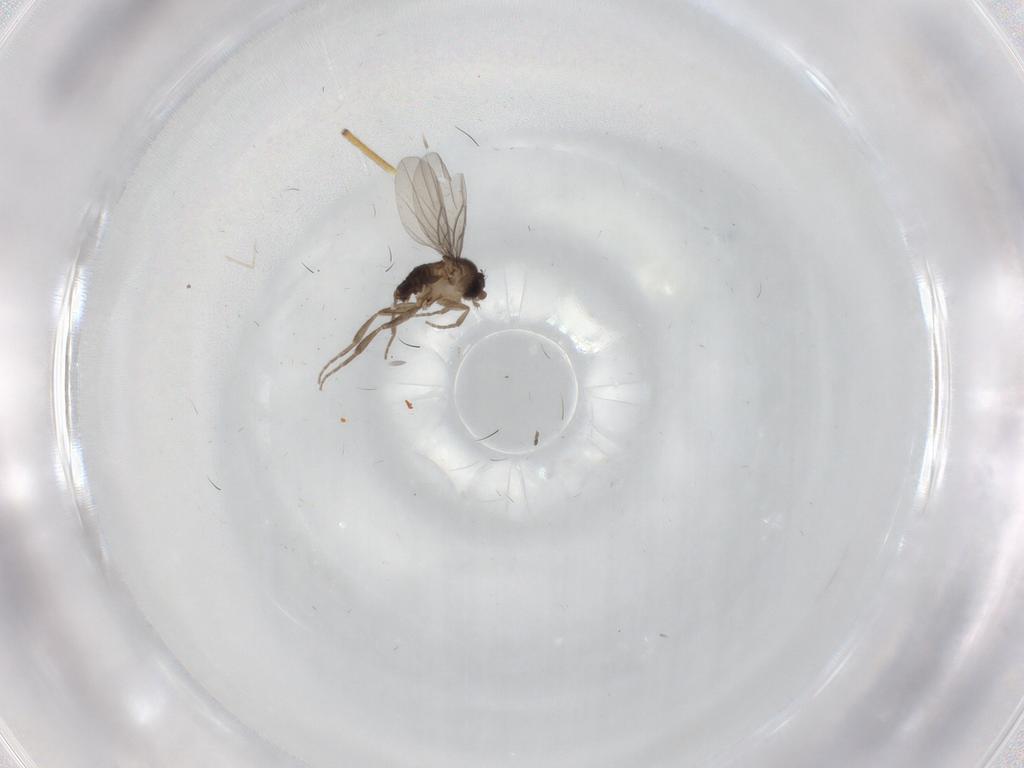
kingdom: Animalia
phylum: Arthropoda
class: Insecta
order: Diptera
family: Phoridae
